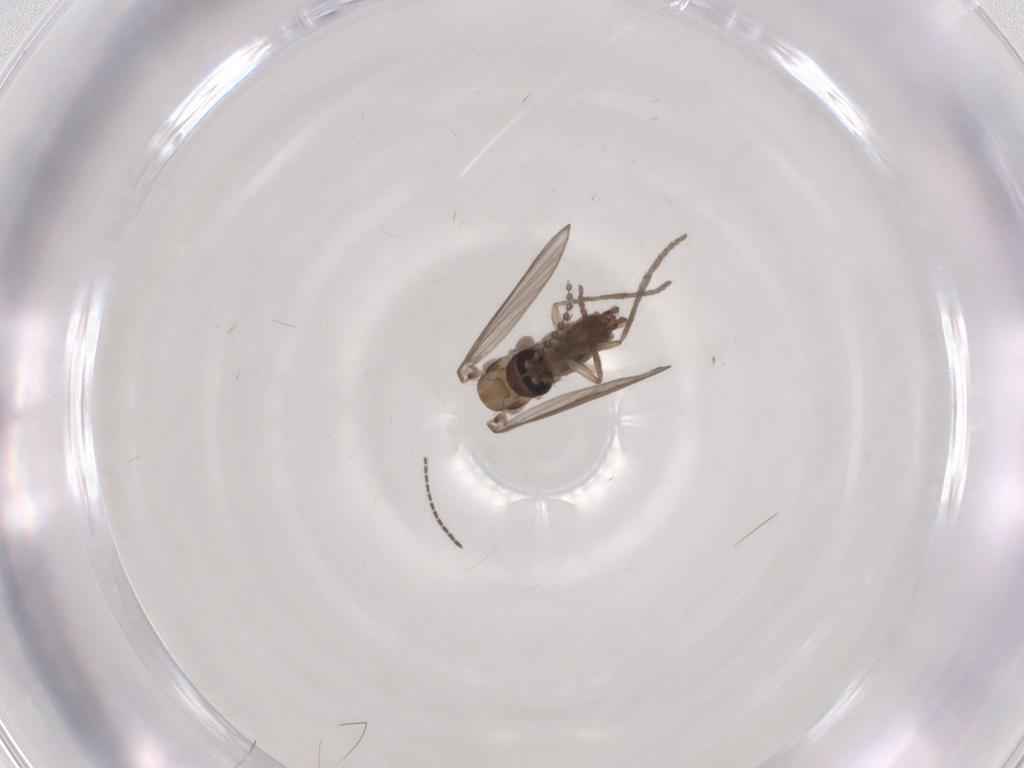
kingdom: Animalia
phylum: Arthropoda
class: Insecta
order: Diptera
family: Psychodidae
